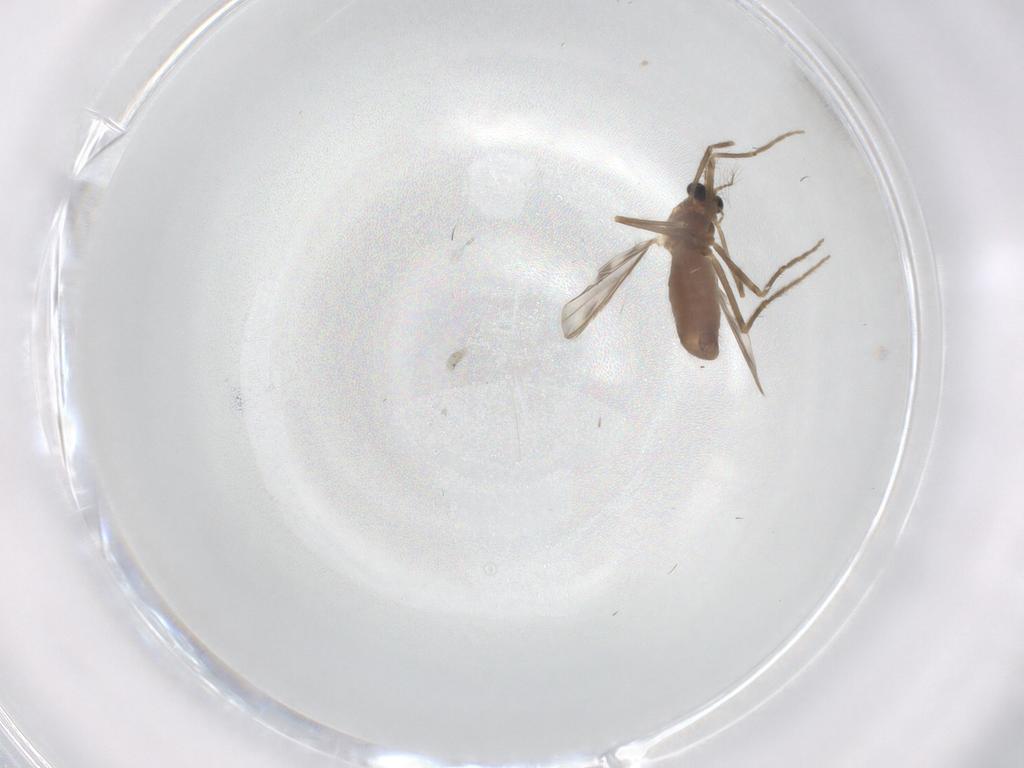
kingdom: Animalia
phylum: Arthropoda
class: Insecta
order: Diptera
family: Chironomidae
